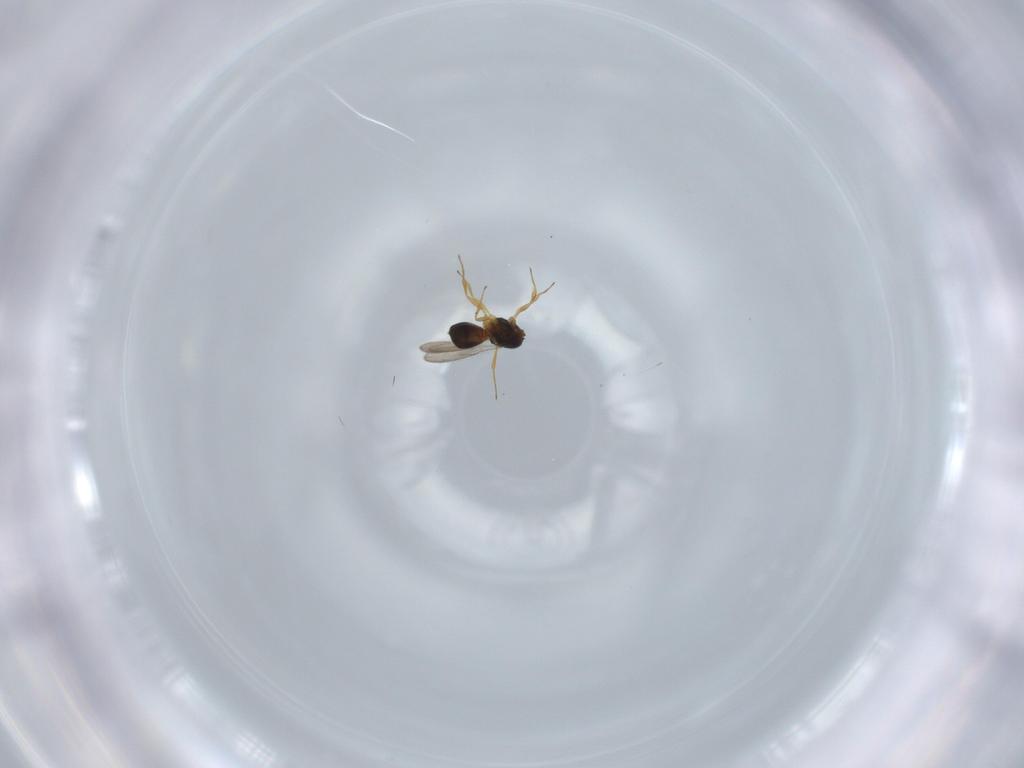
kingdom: Animalia
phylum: Arthropoda
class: Insecta
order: Hymenoptera
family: Scelionidae
